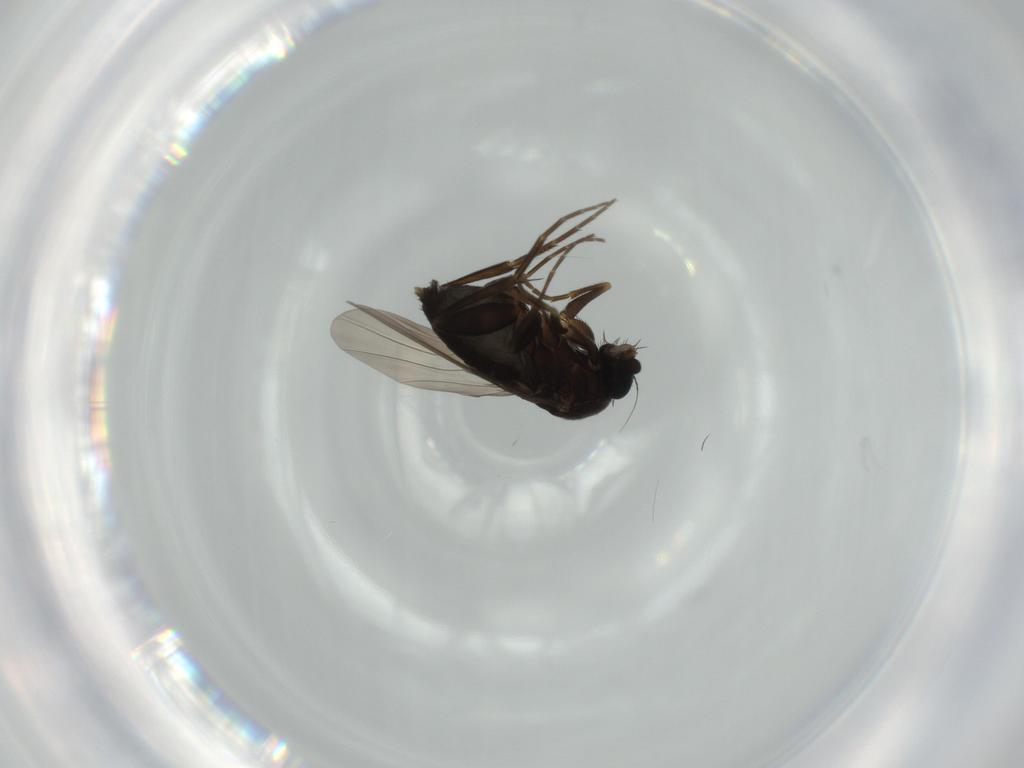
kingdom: Animalia
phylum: Arthropoda
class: Insecta
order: Diptera
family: Phoridae
